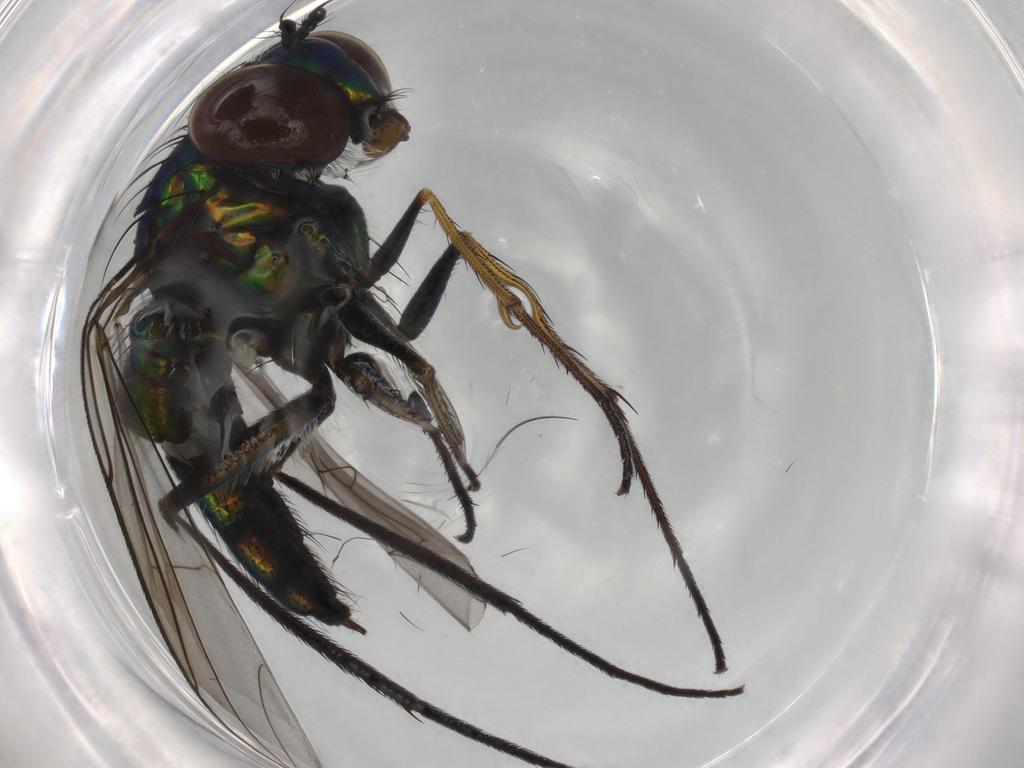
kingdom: Animalia
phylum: Arthropoda
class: Insecta
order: Diptera
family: Dolichopodidae
